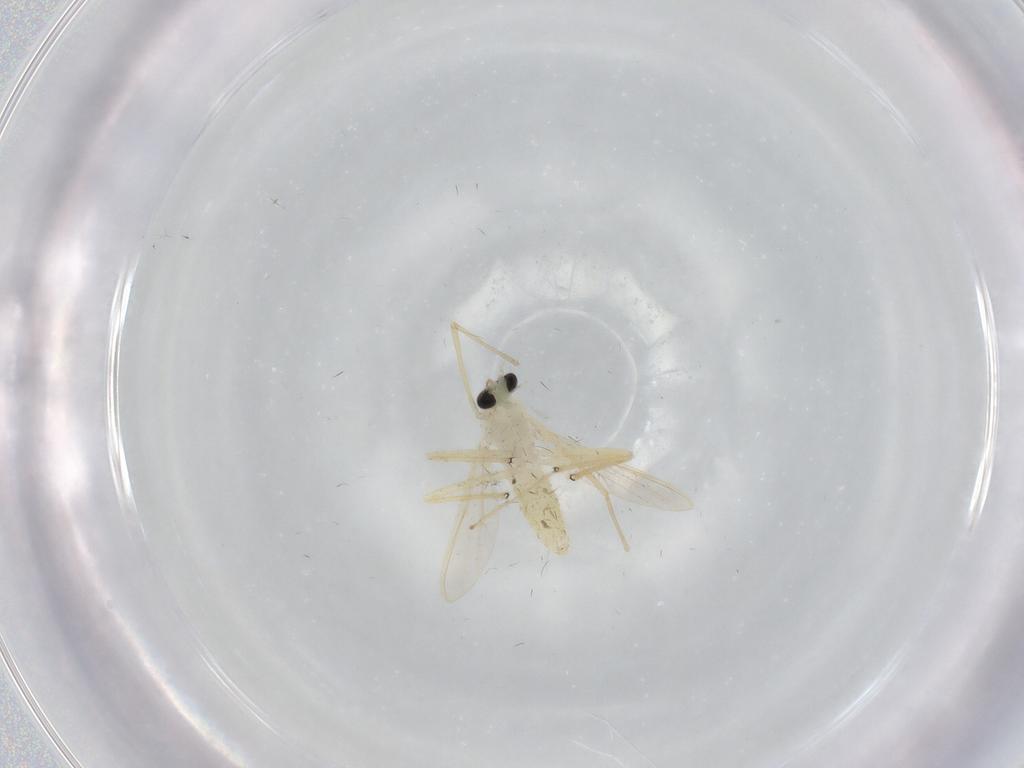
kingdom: Animalia
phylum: Arthropoda
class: Insecta
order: Diptera
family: Chironomidae
